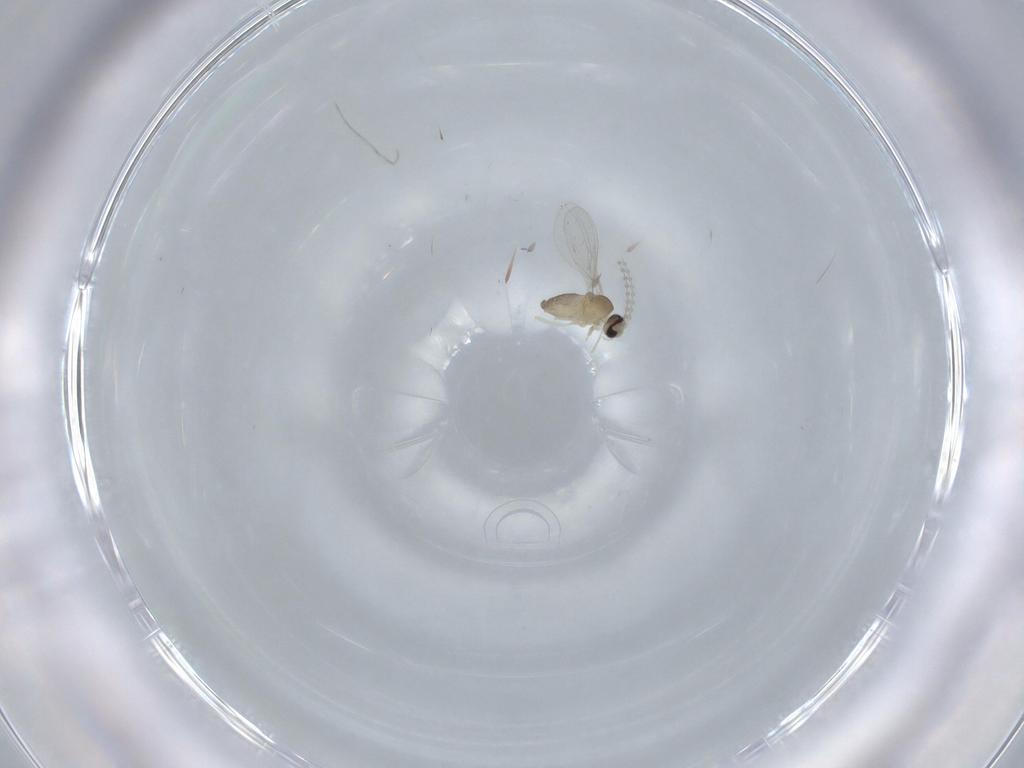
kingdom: Animalia
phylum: Arthropoda
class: Insecta
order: Diptera
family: Cecidomyiidae
